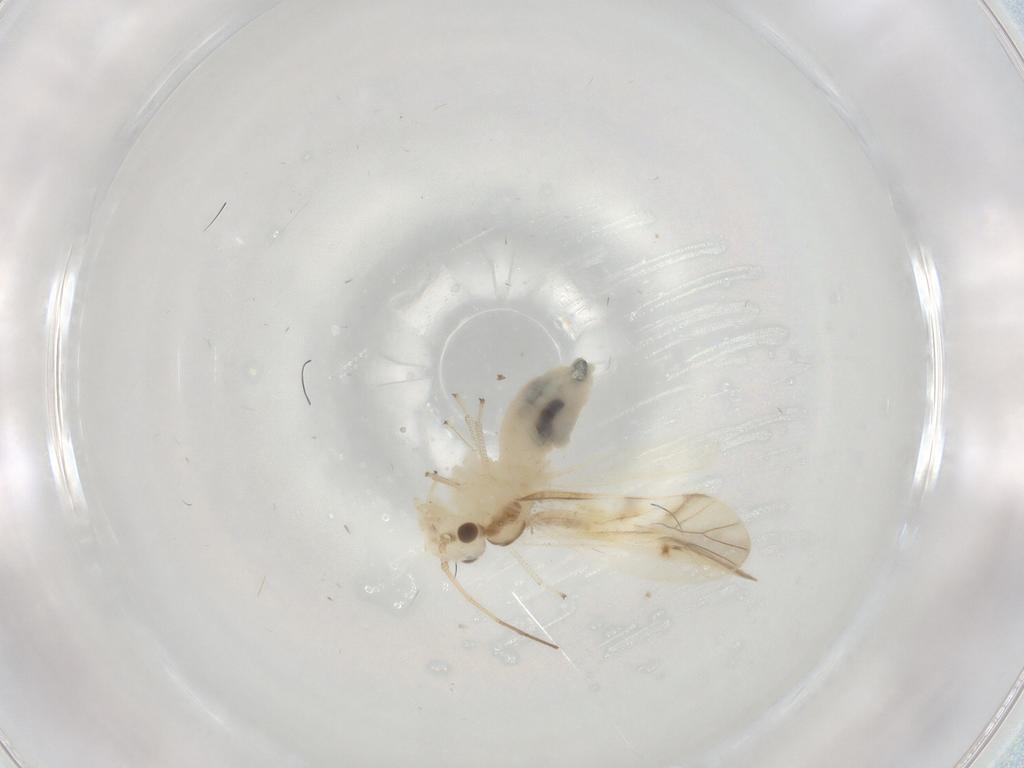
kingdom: Animalia
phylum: Arthropoda
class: Insecta
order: Psocodea
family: Caeciliusidae
